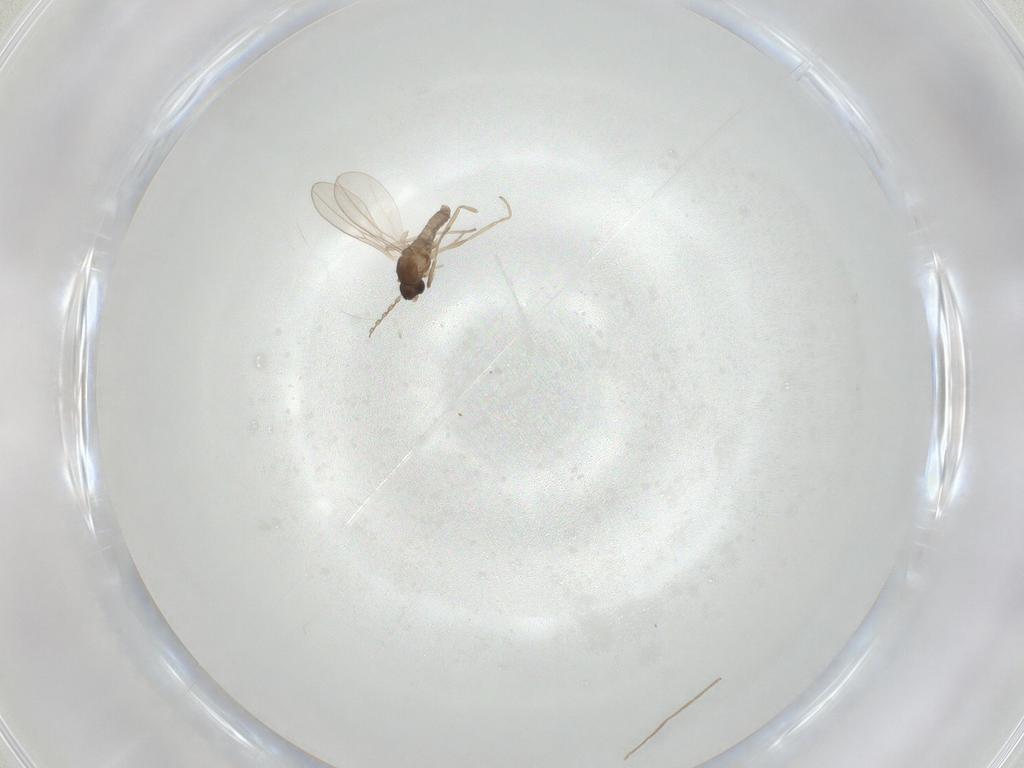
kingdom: Animalia
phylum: Arthropoda
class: Insecta
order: Diptera
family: Cecidomyiidae
